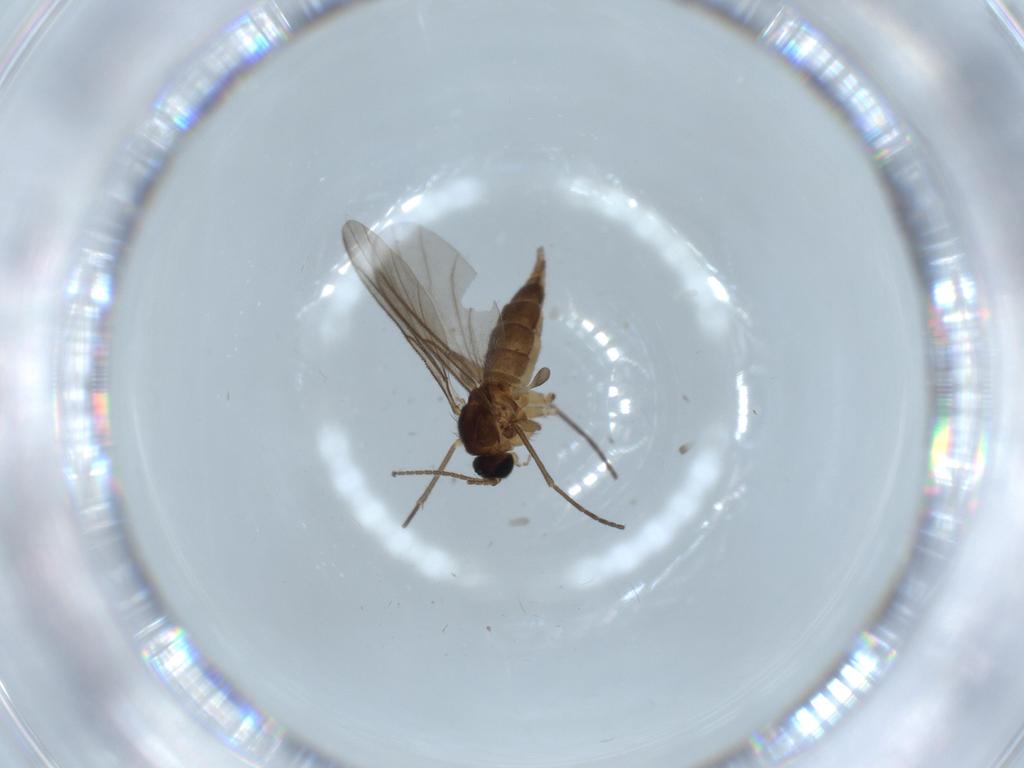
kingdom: Animalia
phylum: Arthropoda
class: Insecta
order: Diptera
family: Sciaridae
